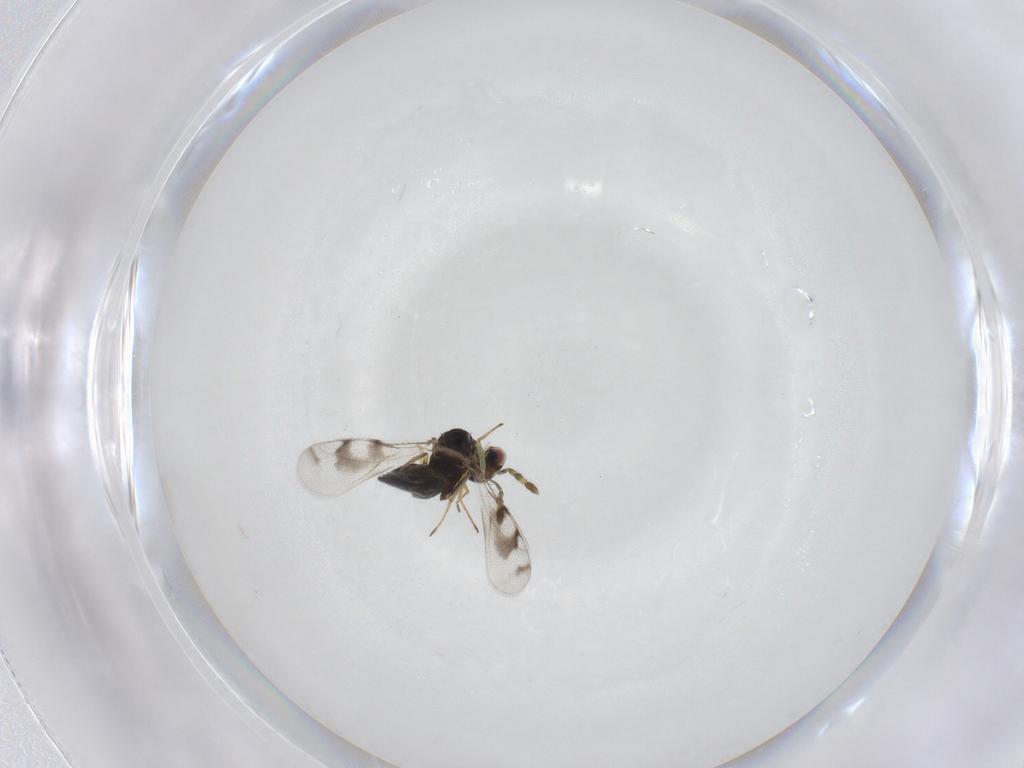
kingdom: Animalia
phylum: Arthropoda
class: Insecta
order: Hymenoptera
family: Eulophidae
